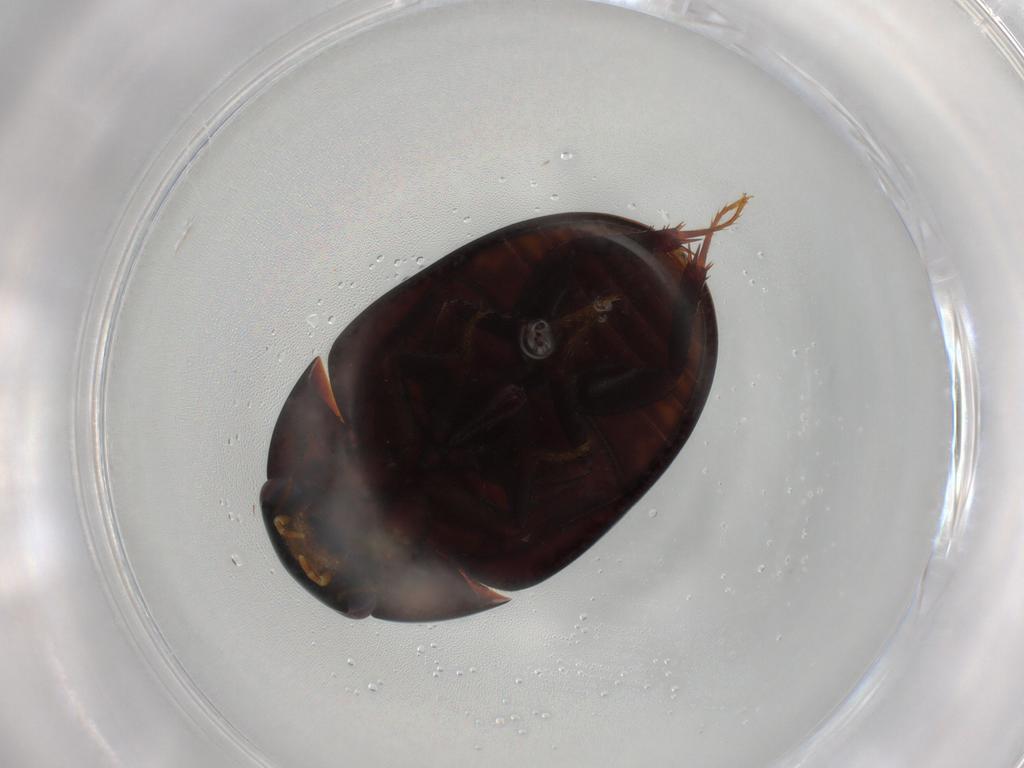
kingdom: Animalia
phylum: Arthropoda
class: Insecta
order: Coleoptera
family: Hydrophilidae
